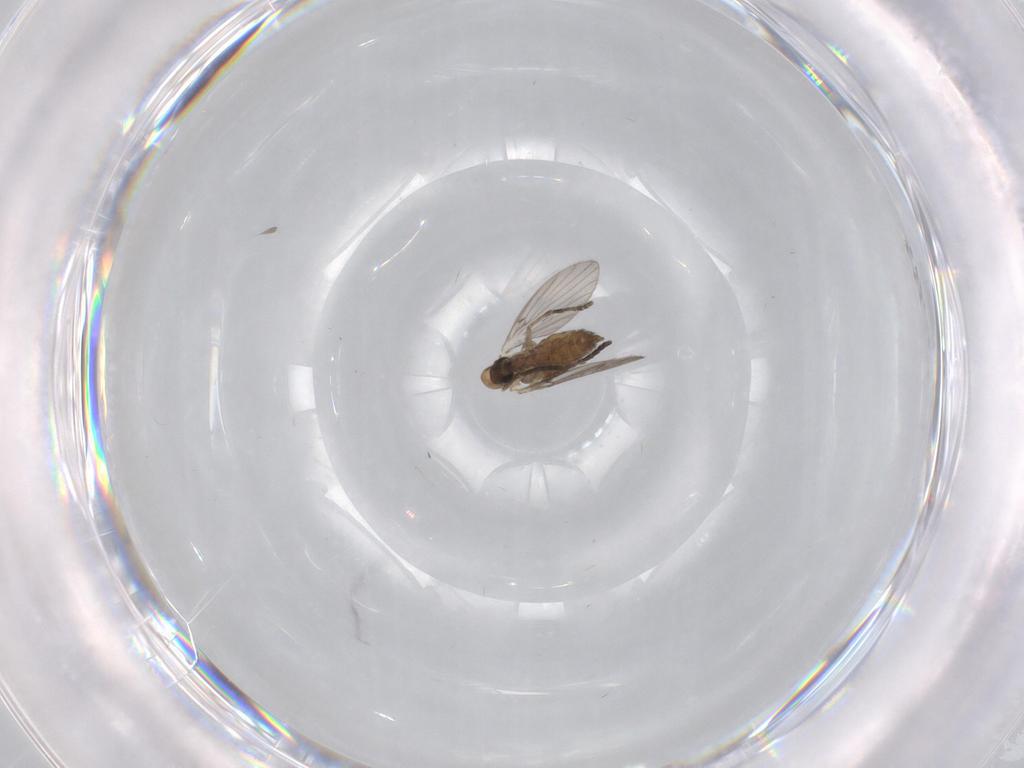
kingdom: Animalia
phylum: Arthropoda
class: Insecta
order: Diptera
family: Psychodidae
